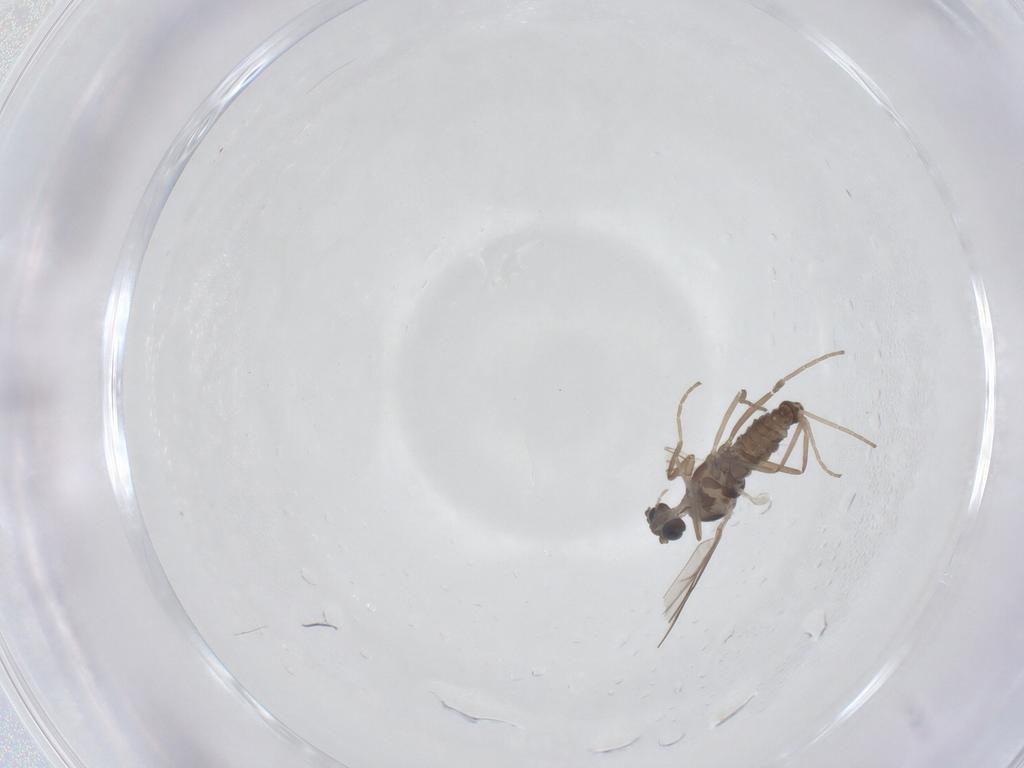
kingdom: Animalia
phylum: Arthropoda
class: Insecta
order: Diptera
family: Cecidomyiidae
